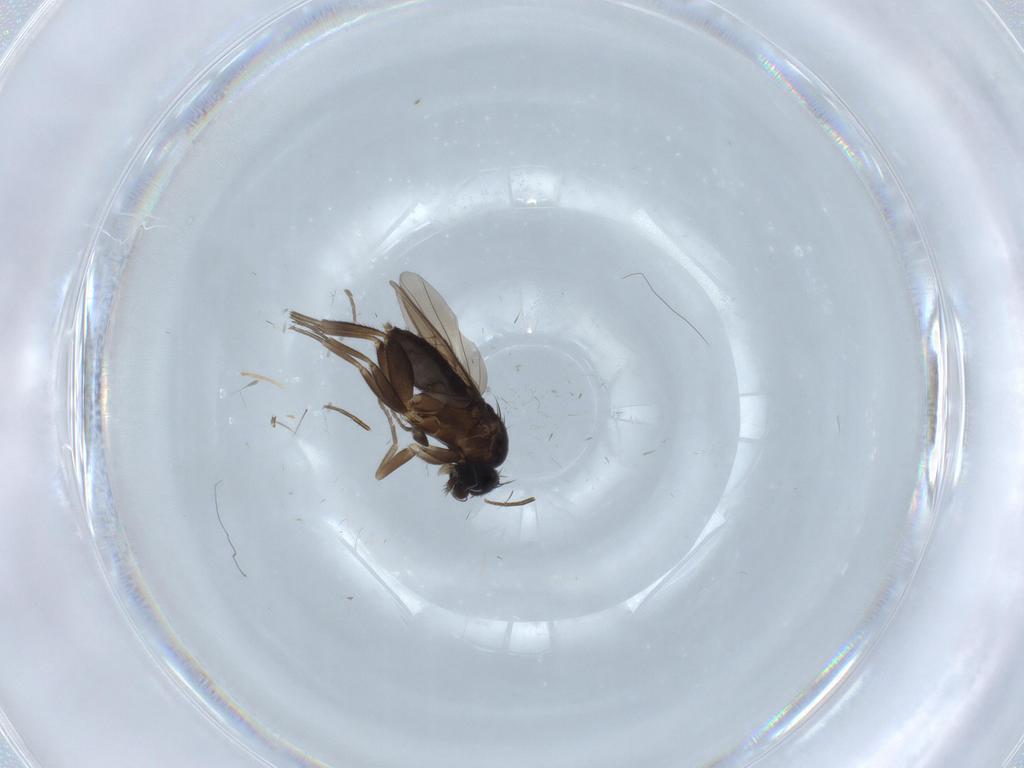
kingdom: Animalia
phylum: Arthropoda
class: Insecta
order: Diptera
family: Phoridae
